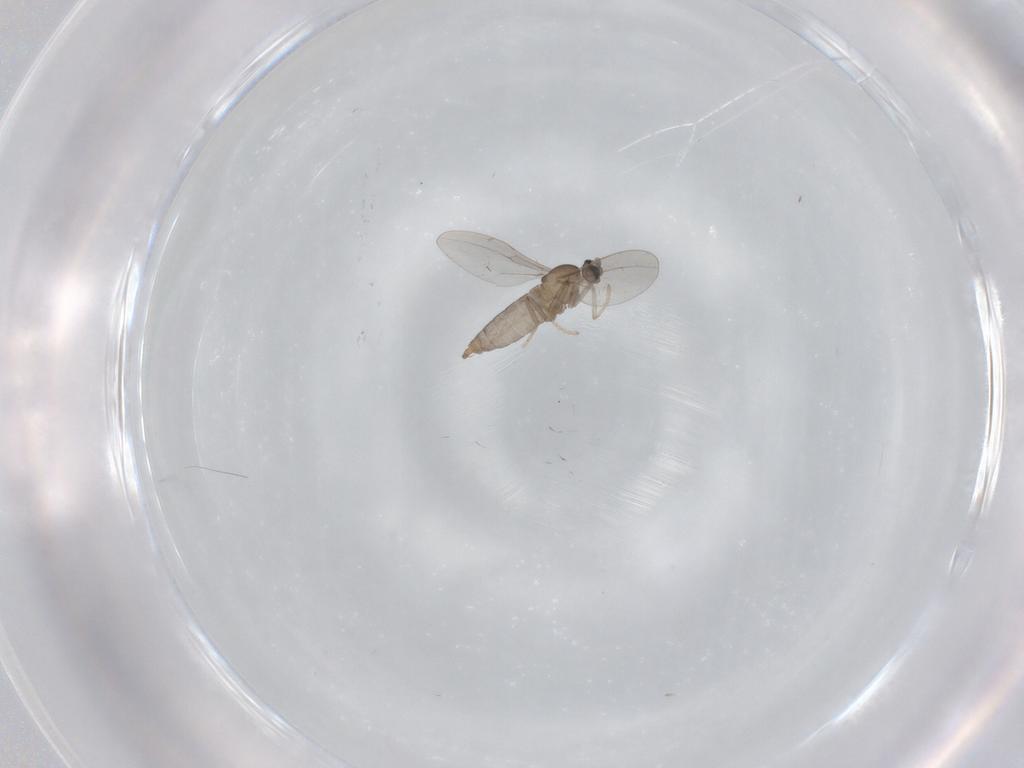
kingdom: Animalia
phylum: Arthropoda
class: Insecta
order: Diptera
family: Cecidomyiidae
